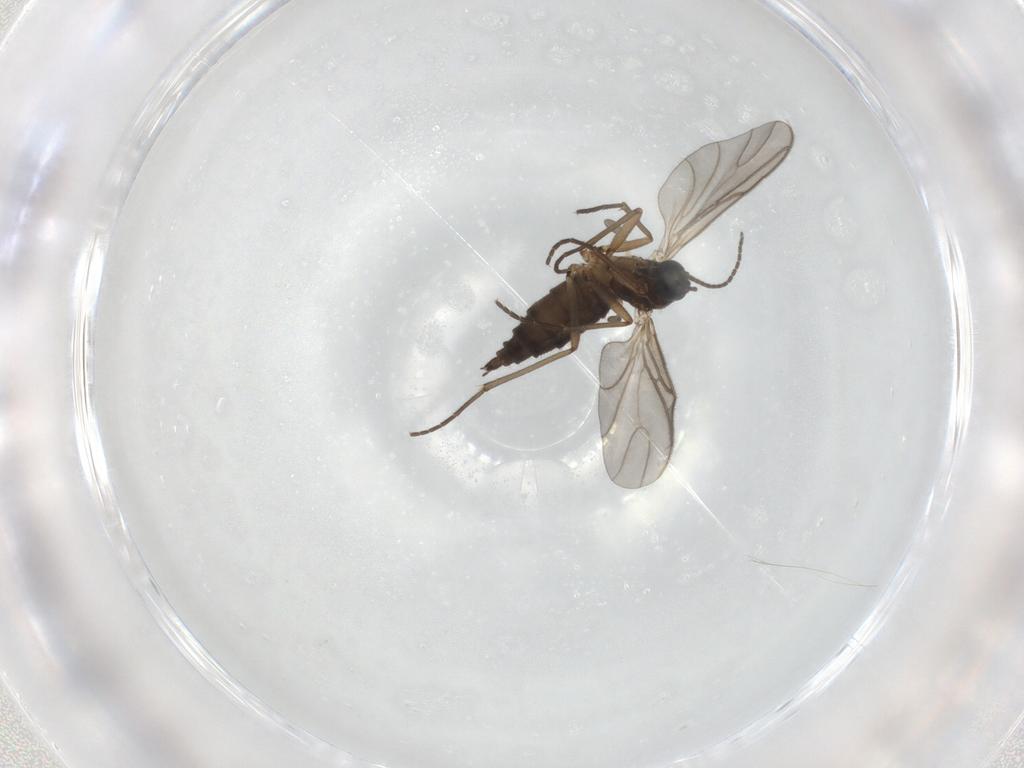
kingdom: Animalia
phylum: Arthropoda
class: Insecta
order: Diptera
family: Sciaridae
